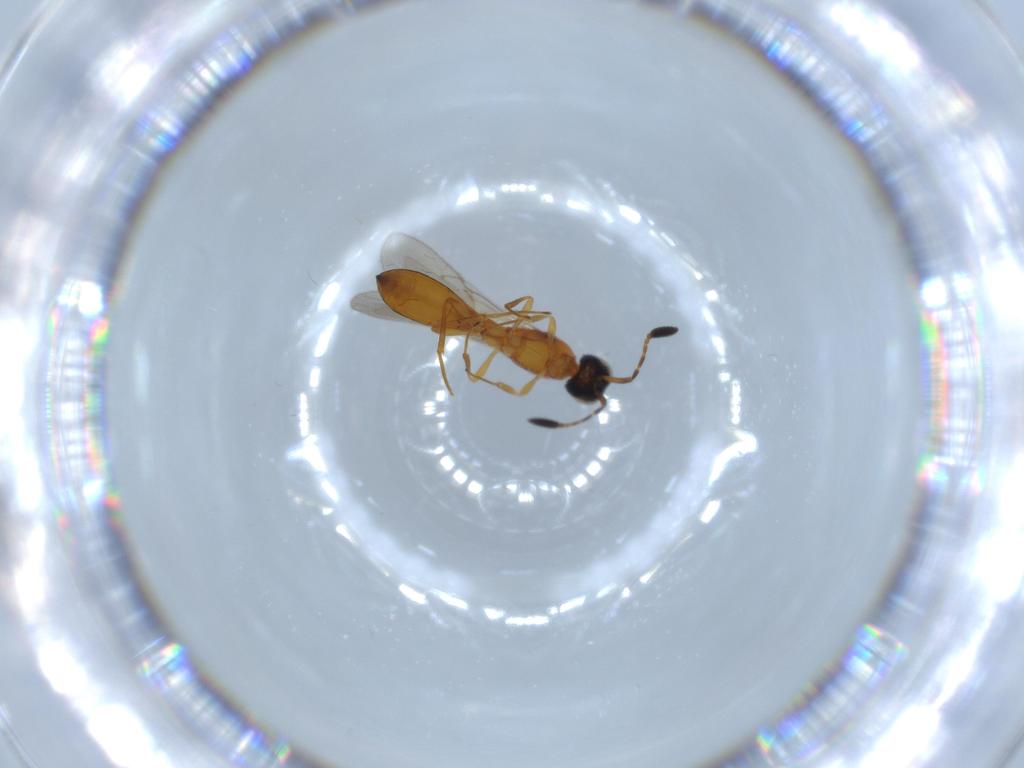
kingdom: Animalia
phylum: Arthropoda
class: Insecta
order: Hymenoptera
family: Scelionidae
